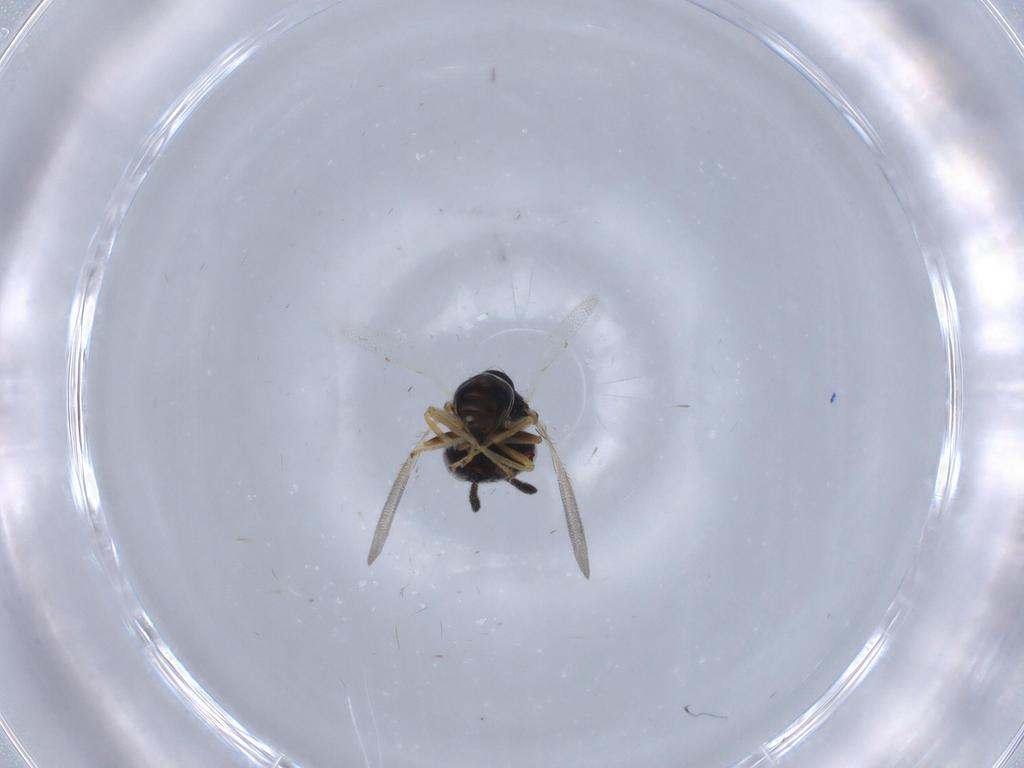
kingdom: Animalia
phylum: Arthropoda
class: Insecta
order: Hymenoptera
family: Pteromalidae
